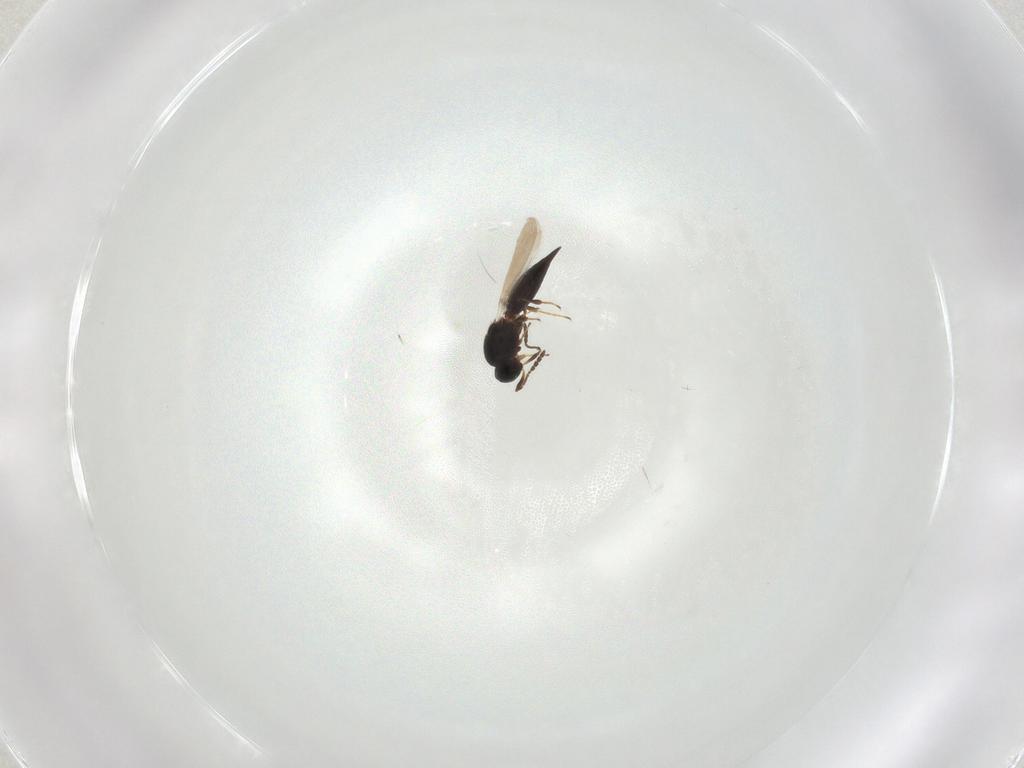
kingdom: Animalia
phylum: Arthropoda
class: Insecta
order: Hymenoptera
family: Platygastridae
